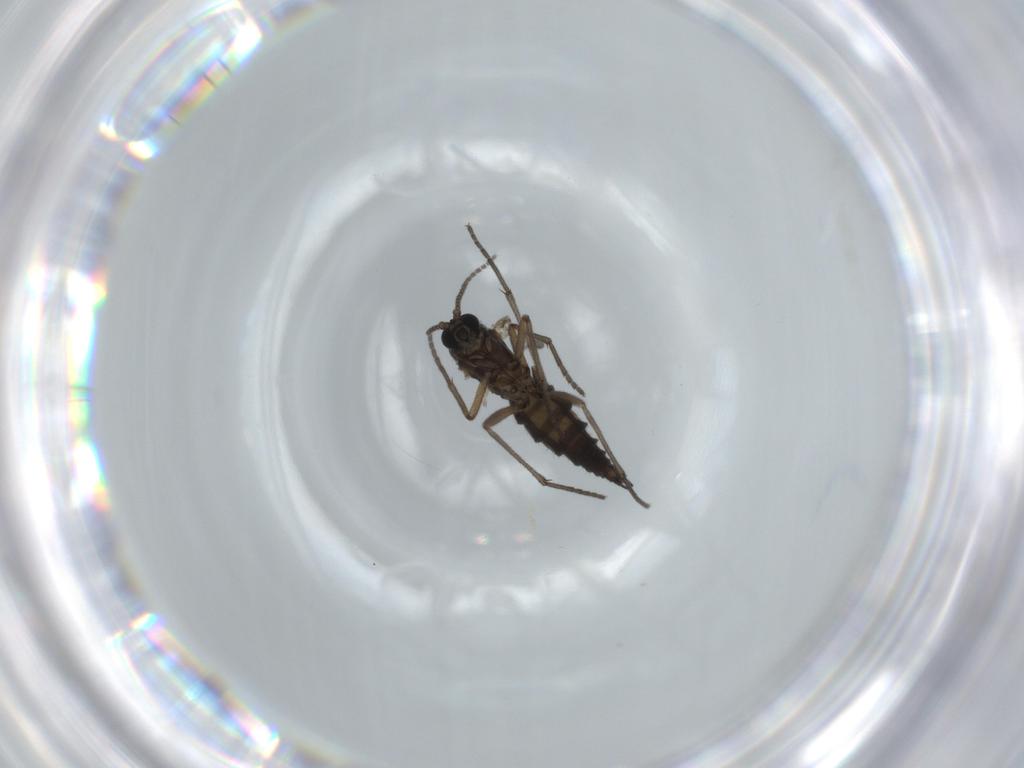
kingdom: Animalia
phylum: Arthropoda
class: Insecta
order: Diptera
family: Sciaridae
